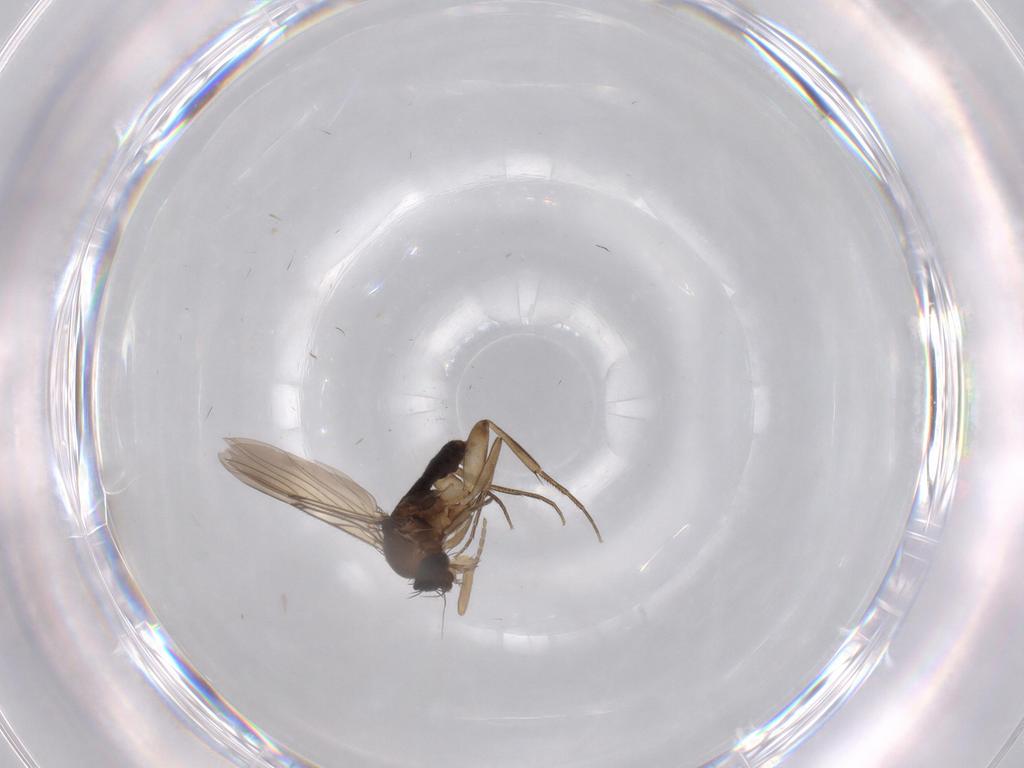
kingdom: Animalia
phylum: Arthropoda
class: Insecta
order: Diptera
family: Phoridae
